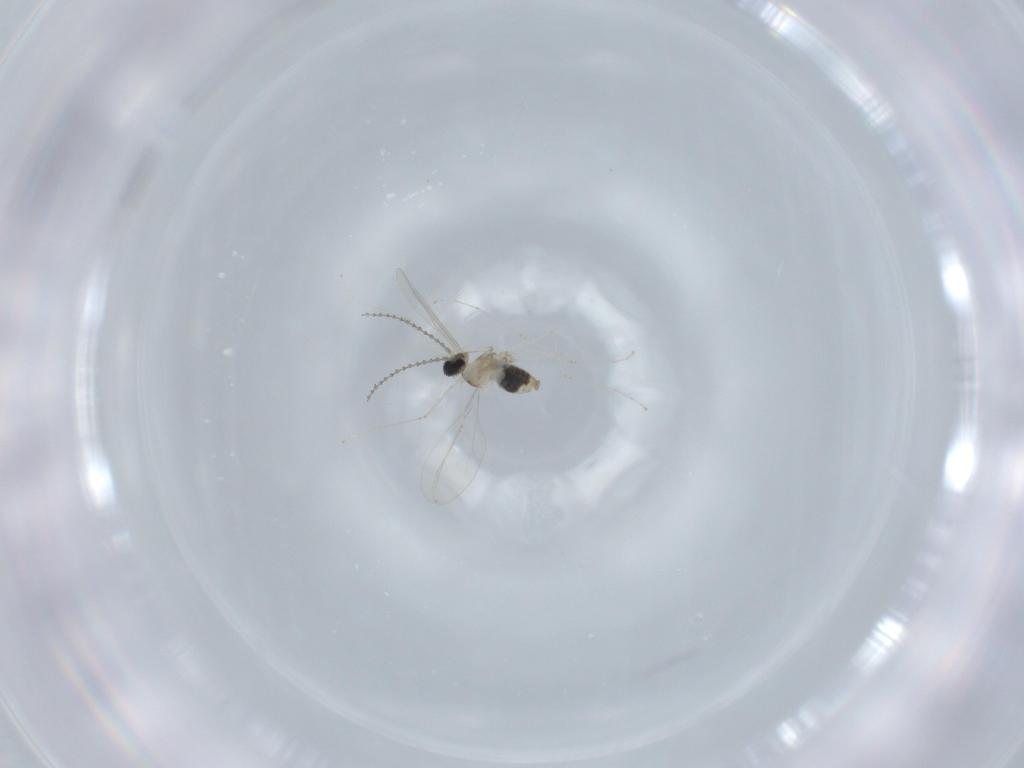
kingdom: Animalia
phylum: Arthropoda
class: Insecta
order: Diptera
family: Cecidomyiidae
